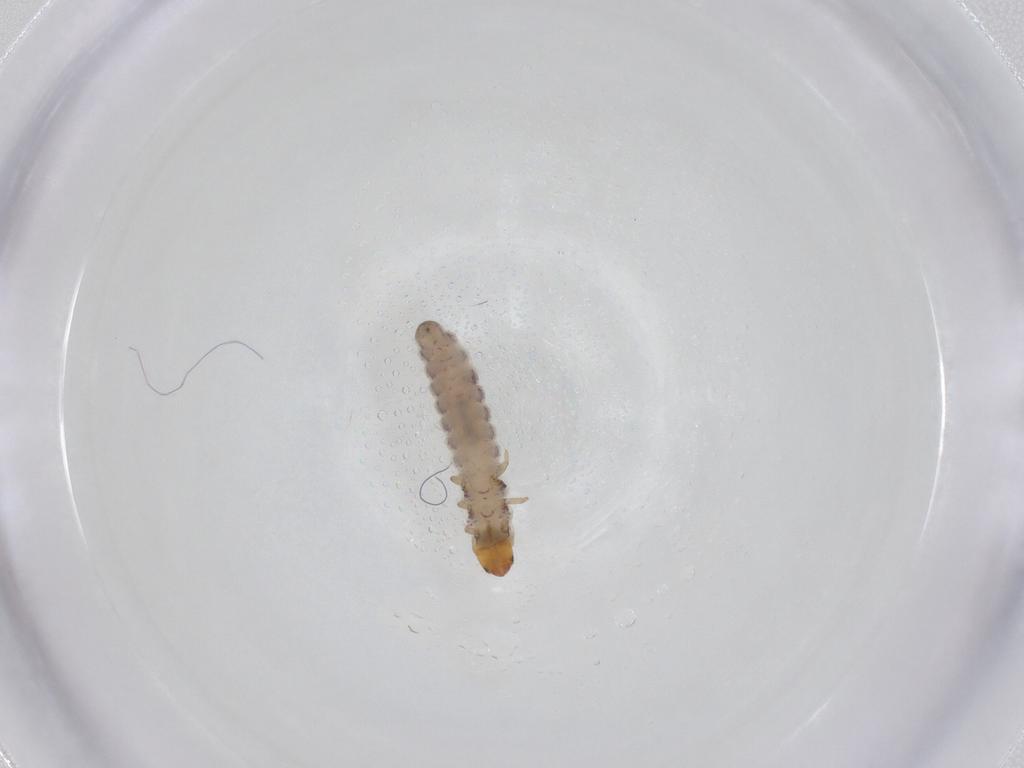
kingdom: Animalia
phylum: Arthropoda
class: Insecta
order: Coleoptera
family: Cleridae
